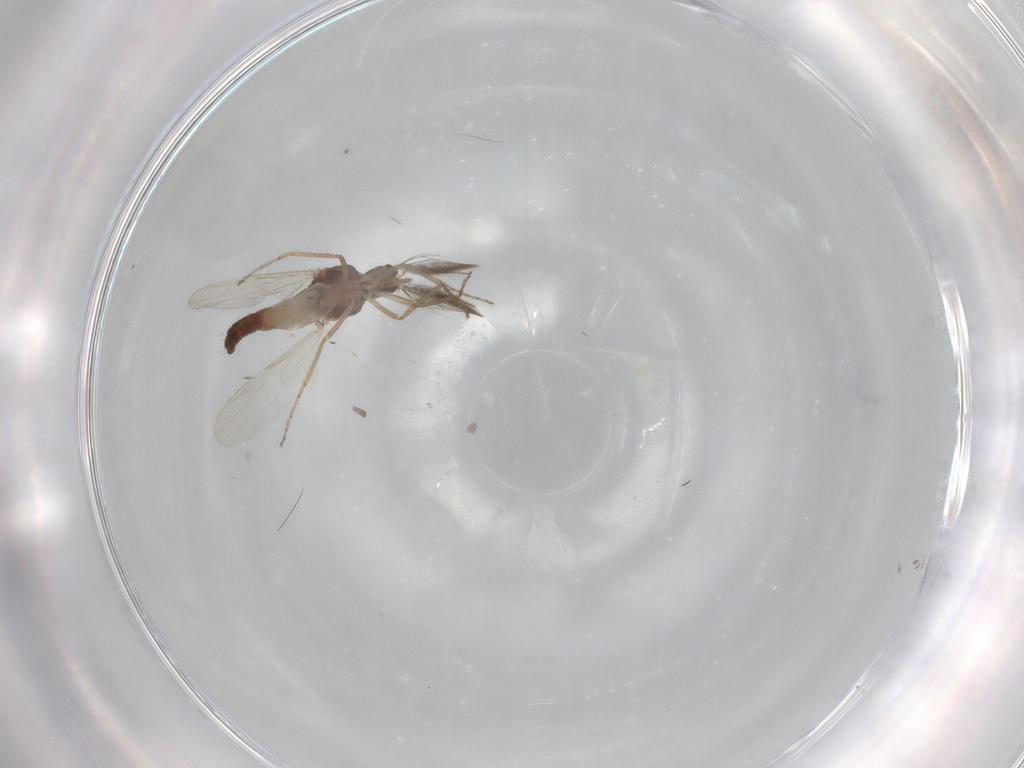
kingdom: Animalia
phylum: Arthropoda
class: Insecta
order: Diptera
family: Ceratopogonidae
